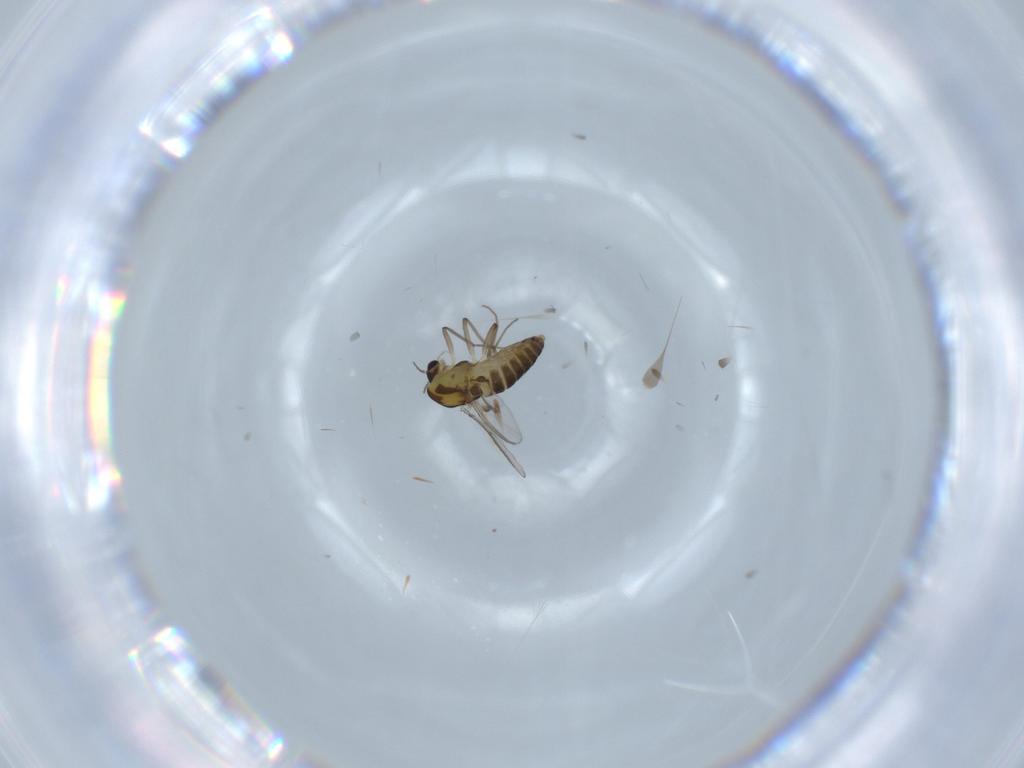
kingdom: Animalia
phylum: Arthropoda
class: Insecta
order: Diptera
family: Chironomidae
